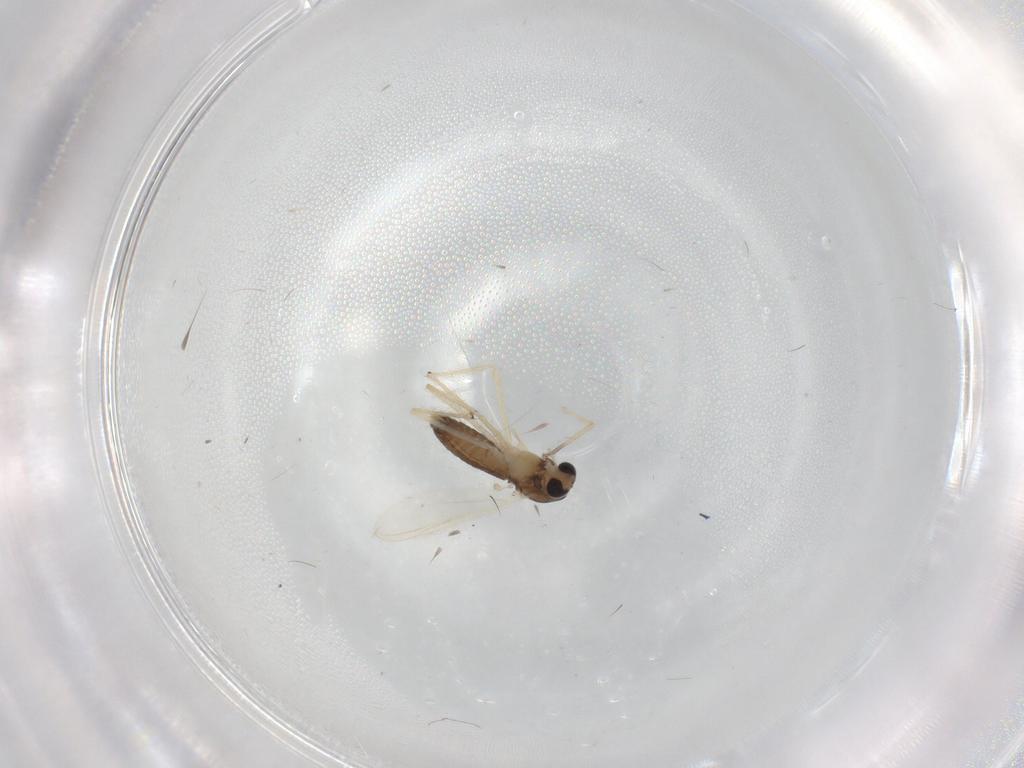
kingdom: Animalia
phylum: Arthropoda
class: Insecta
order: Diptera
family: Chironomidae
